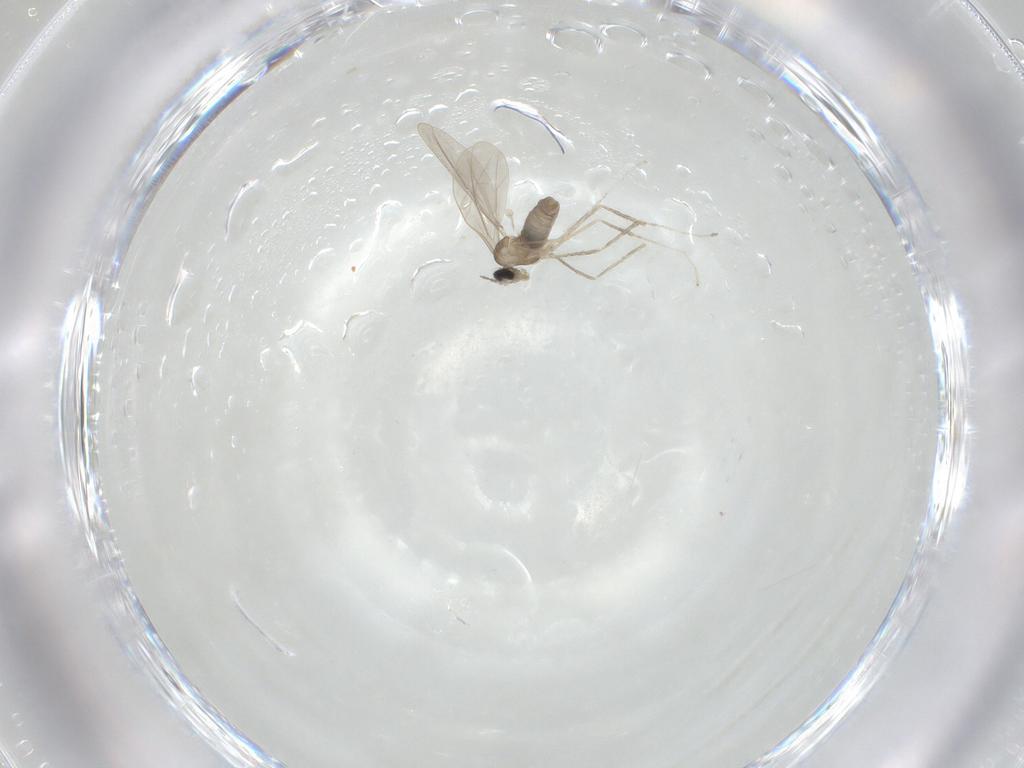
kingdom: Animalia
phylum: Arthropoda
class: Insecta
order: Diptera
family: Cecidomyiidae
